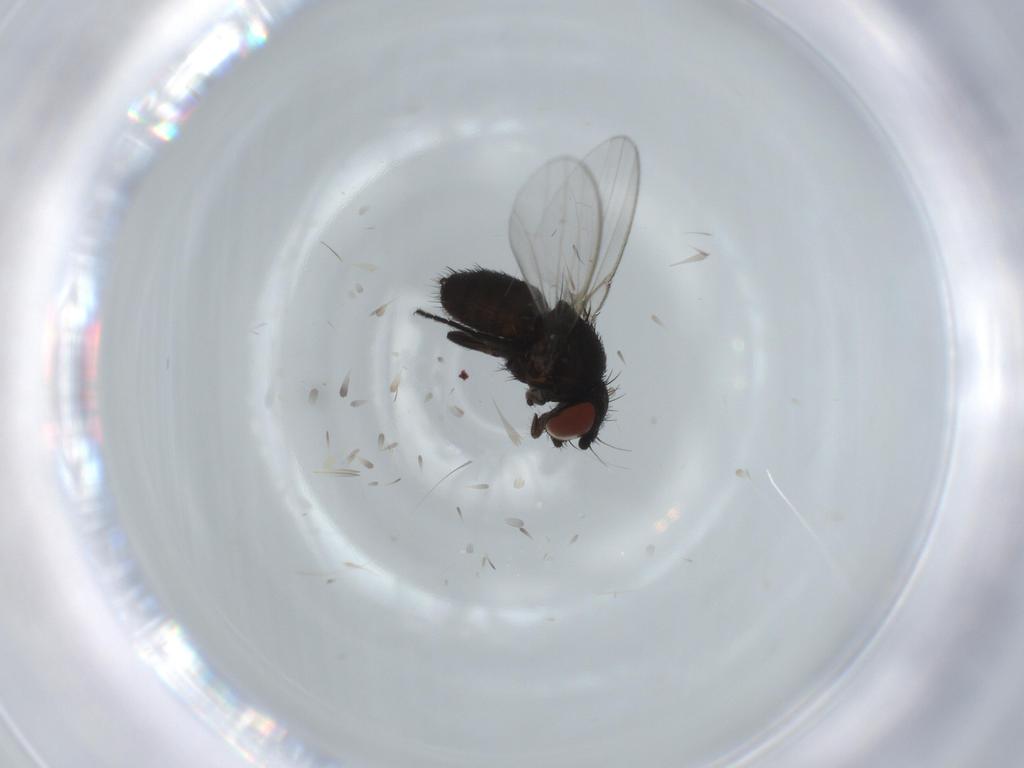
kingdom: Animalia
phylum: Arthropoda
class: Insecta
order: Diptera
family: Milichiidae
